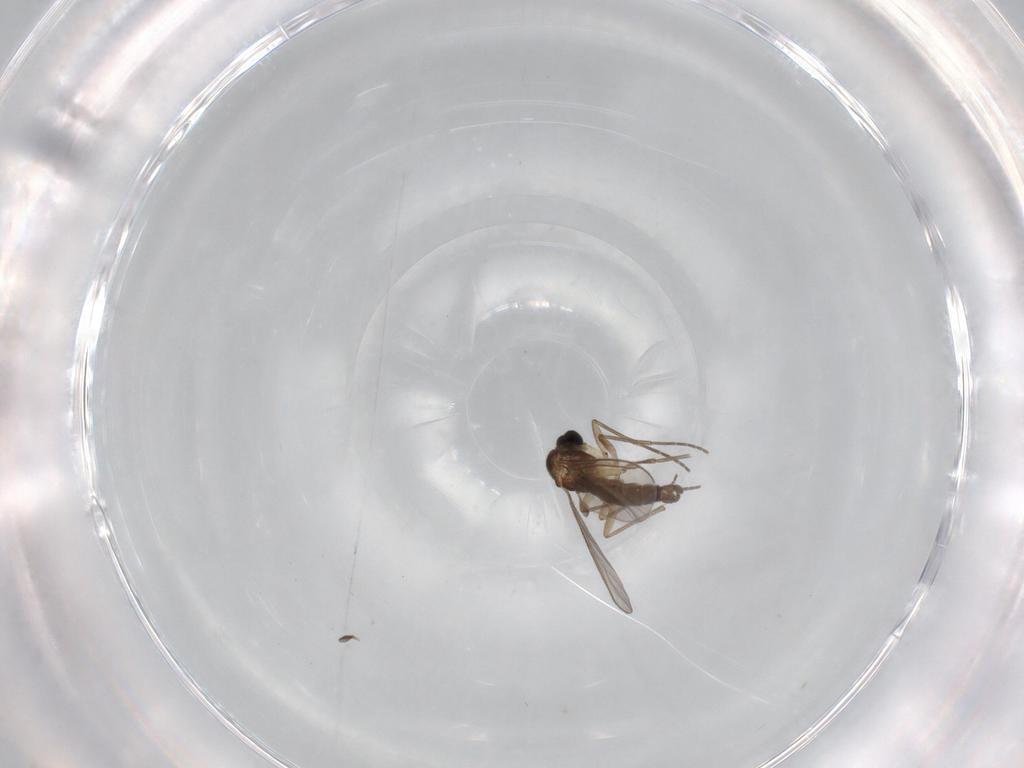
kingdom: Animalia
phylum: Arthropoda
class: Insecta
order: Diptera
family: Sciaridae
